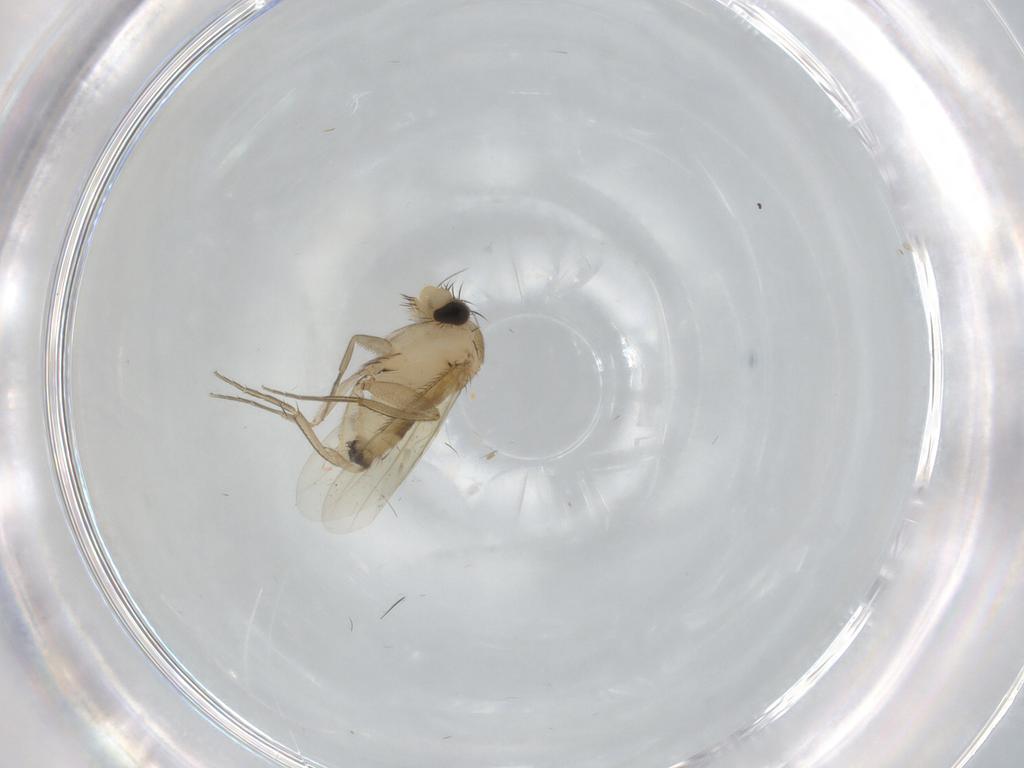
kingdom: Animalia
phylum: Arthropoda
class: Insecta
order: Diptera
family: Phoridae
